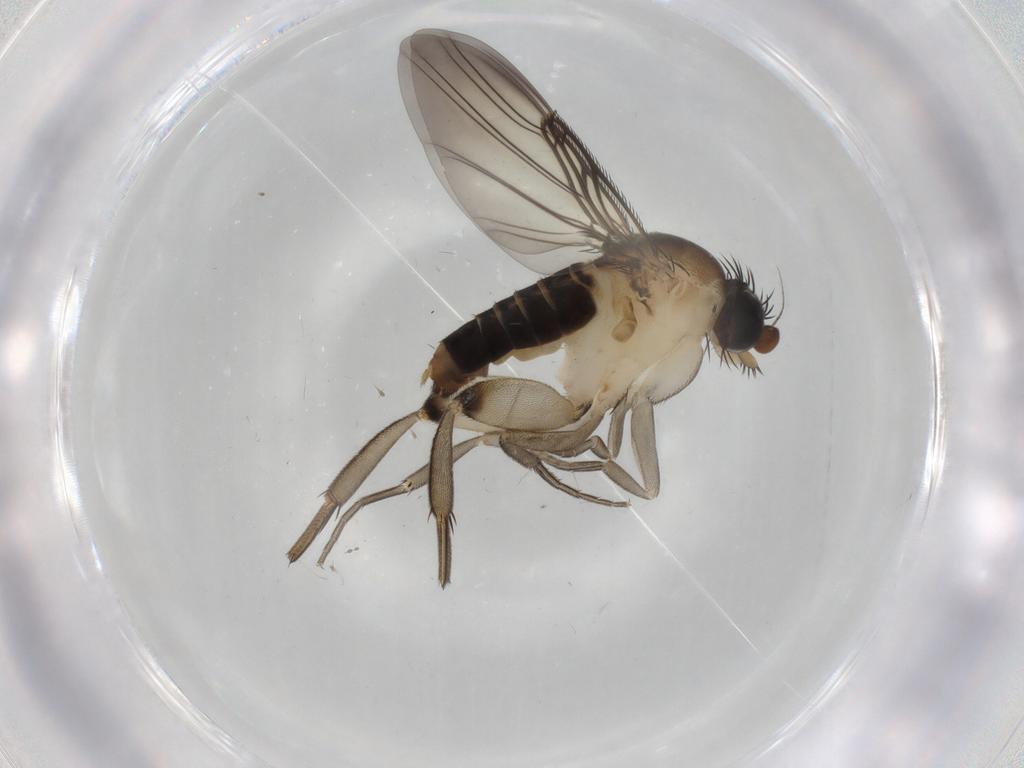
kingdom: Animalia
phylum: Arthropoda
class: Insecta
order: Diptera
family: Phoridae
